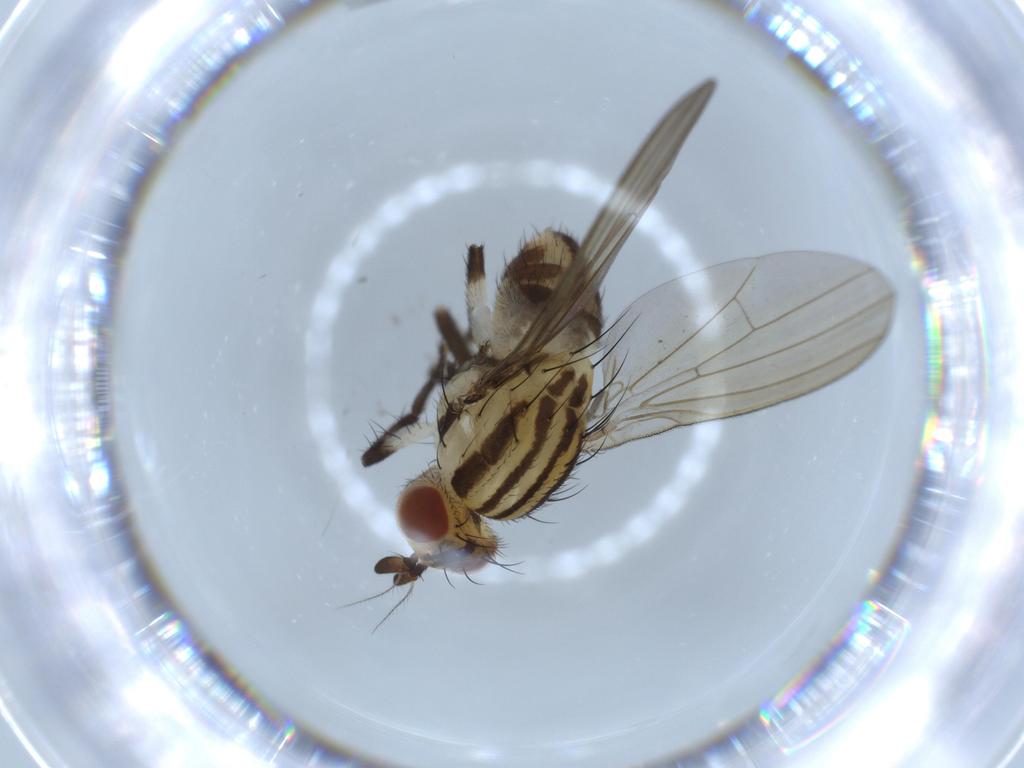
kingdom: Animalia
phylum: Arthropoda
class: Insecta
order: Diptera
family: Lauxaniidae
